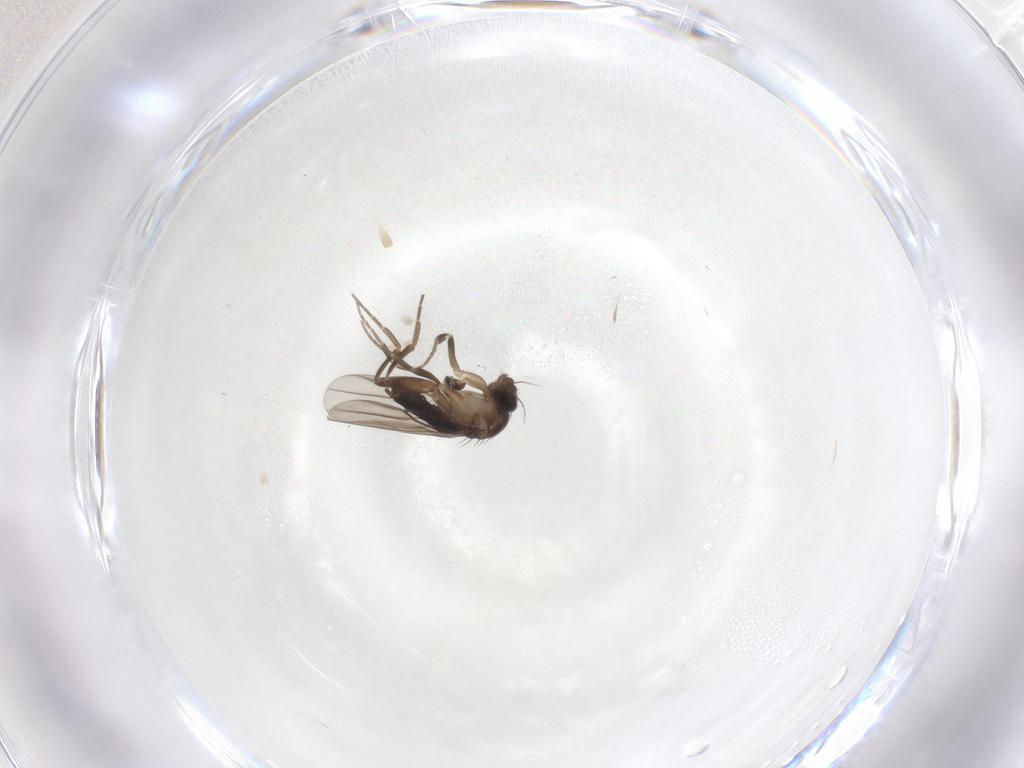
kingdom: Animalia
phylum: Arthropoda
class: Insecta
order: Diptera
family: Phoridae
